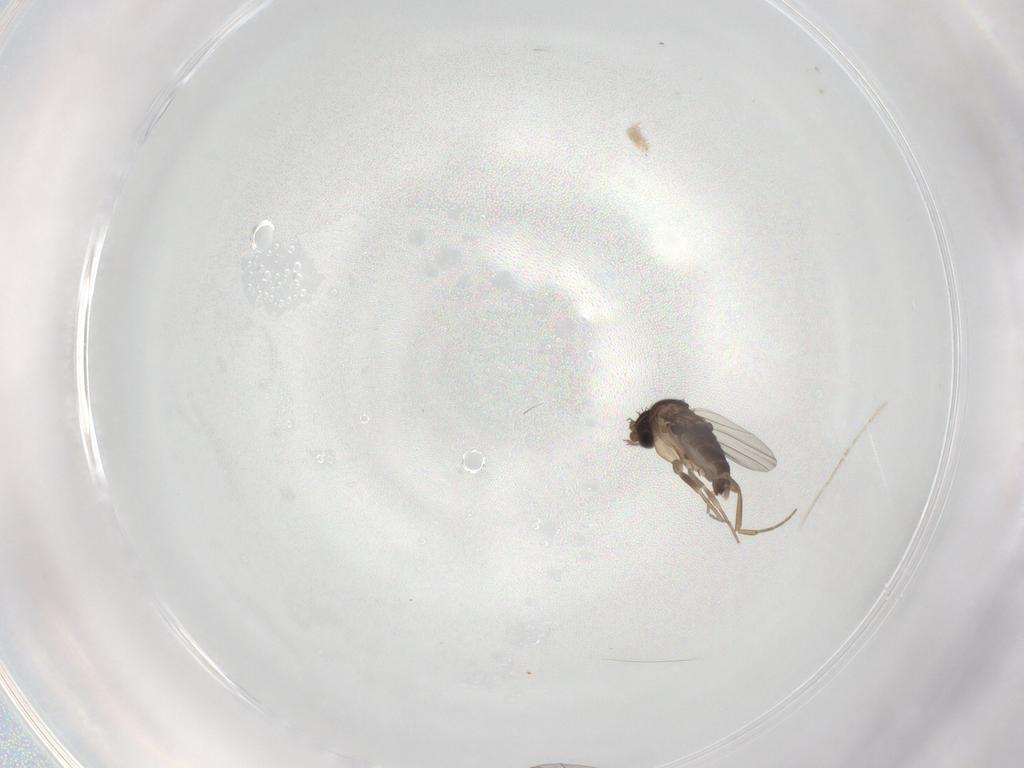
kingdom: Animalia
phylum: Arthropoda
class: Insecta
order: Diptera
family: Phoridae
